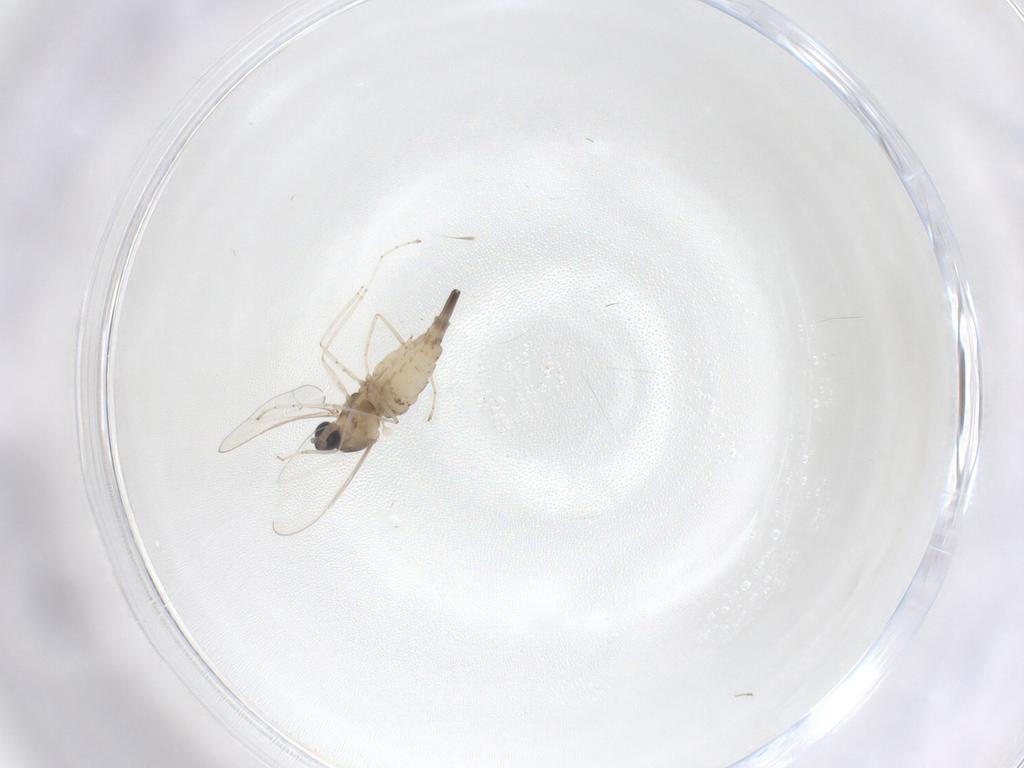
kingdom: Animalia
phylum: Arthropoda
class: Insecta
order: Diptera
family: Cecidomyiidae
